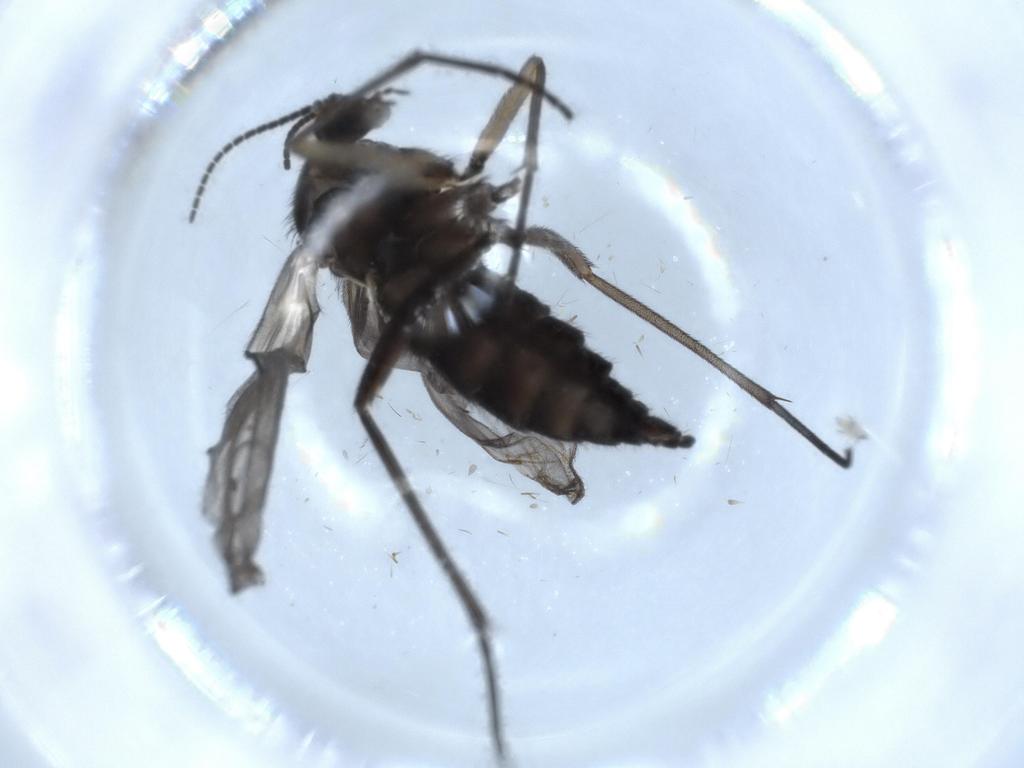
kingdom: Animalia
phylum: Arthropoda
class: Insecta
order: Diptera
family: Sciaridae
